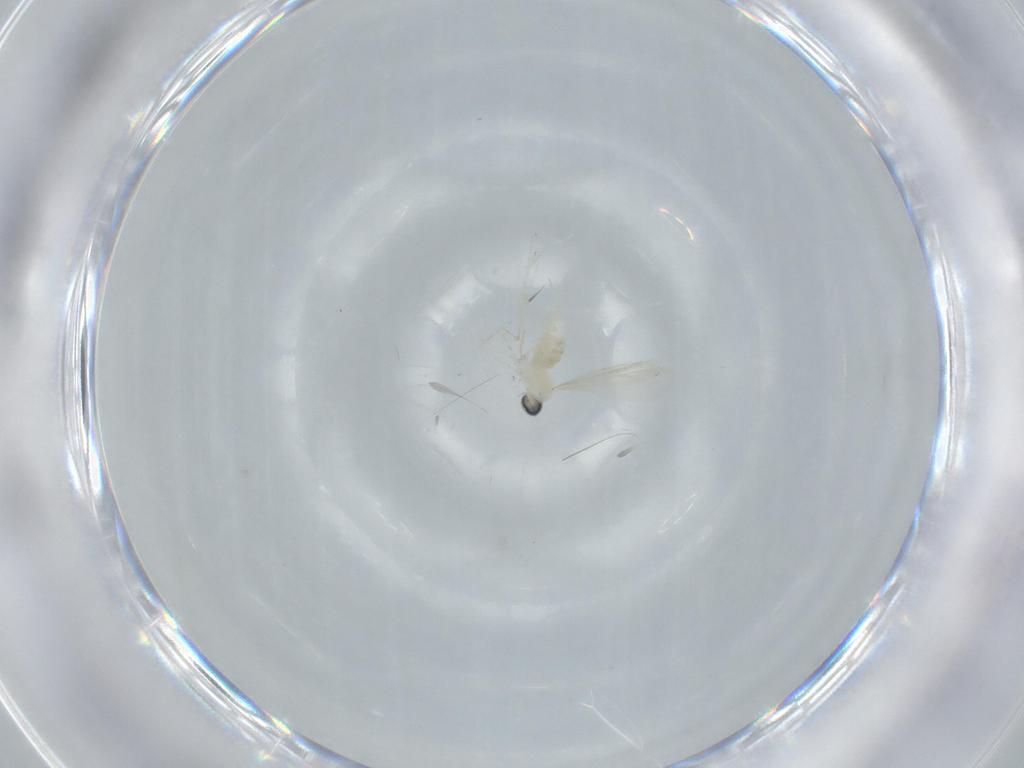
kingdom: Animalia
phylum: Arthropoda
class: Insecta
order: Diptera
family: Cecidomyiidae
